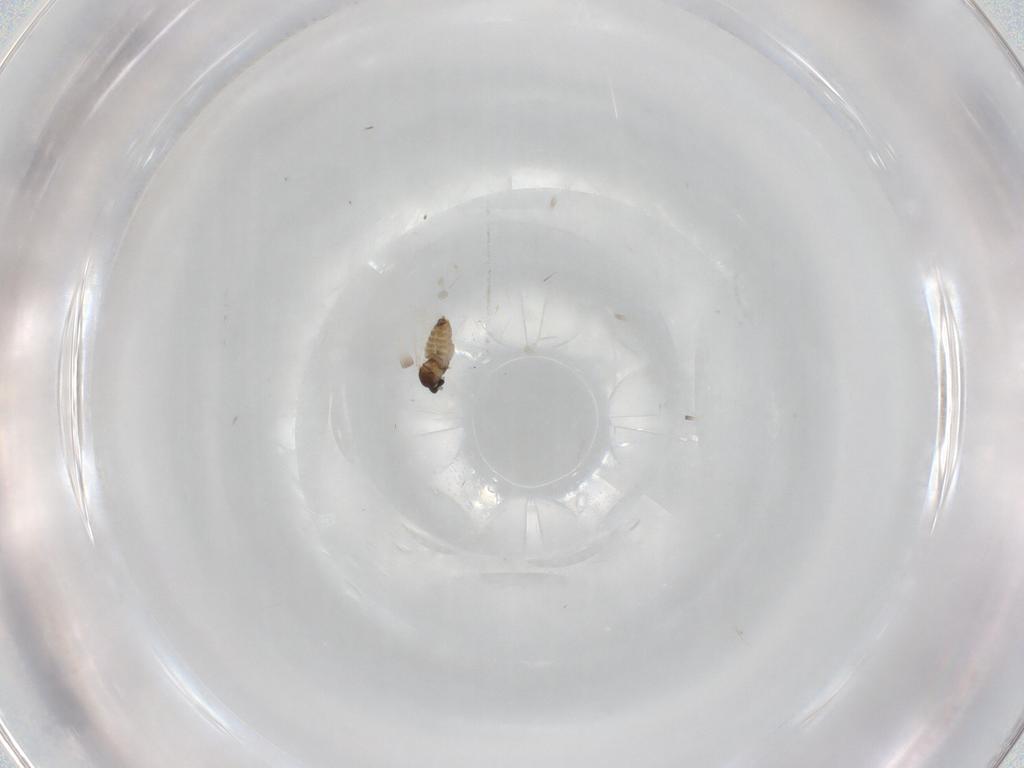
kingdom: Animalia
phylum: Arthropoda
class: Insecta
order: Diptera
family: Cecidomyiidae
